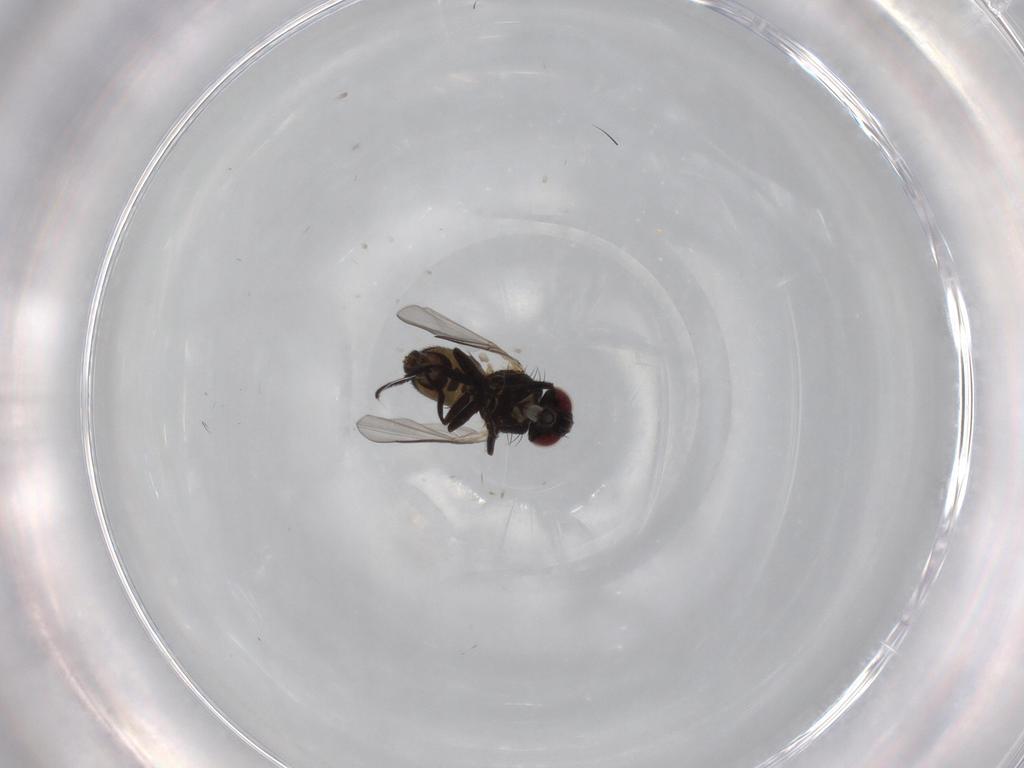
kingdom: Animalia
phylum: Arthropoda
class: Insecta
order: Diptera
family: Agromyzidae
